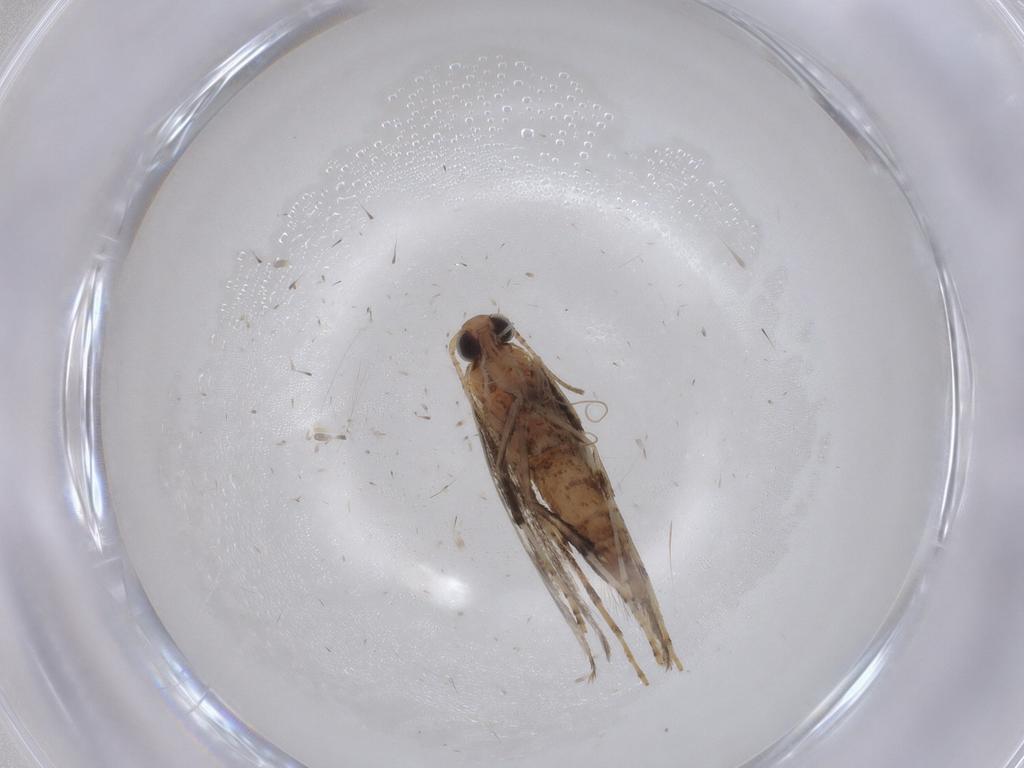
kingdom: Animalia
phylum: Arthropoda
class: Insecta
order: Lepidoptera
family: Gracillariidae
